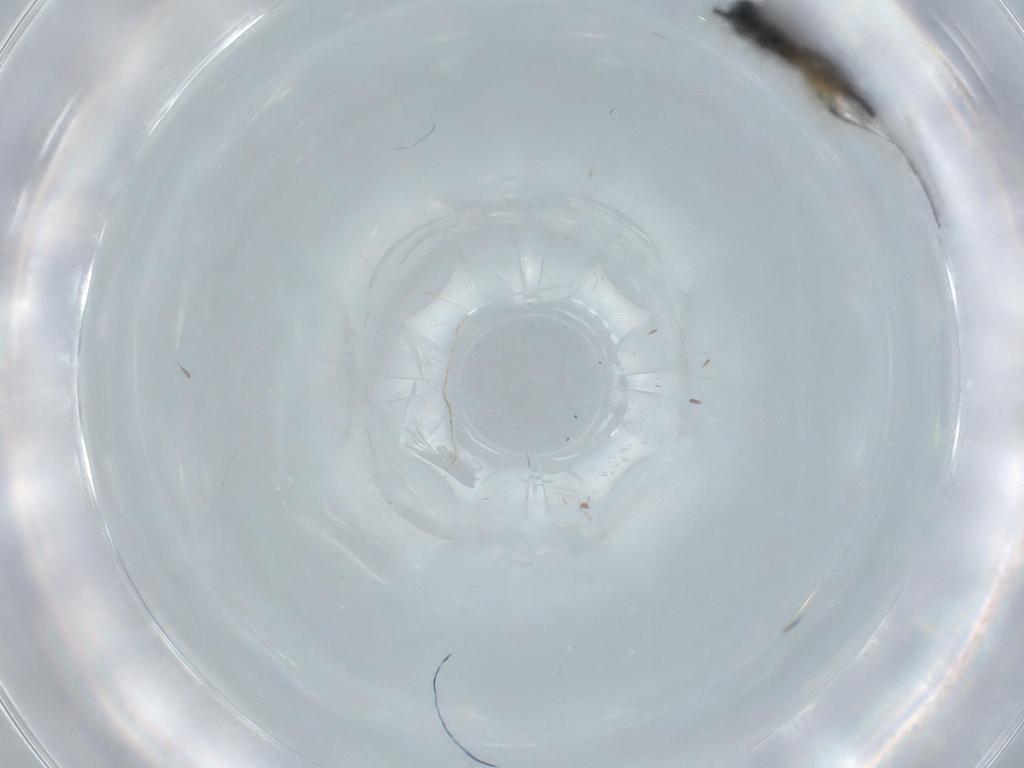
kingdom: Animalia
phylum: Arthropoda
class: Insecta
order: Diptera
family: Sciaridae
